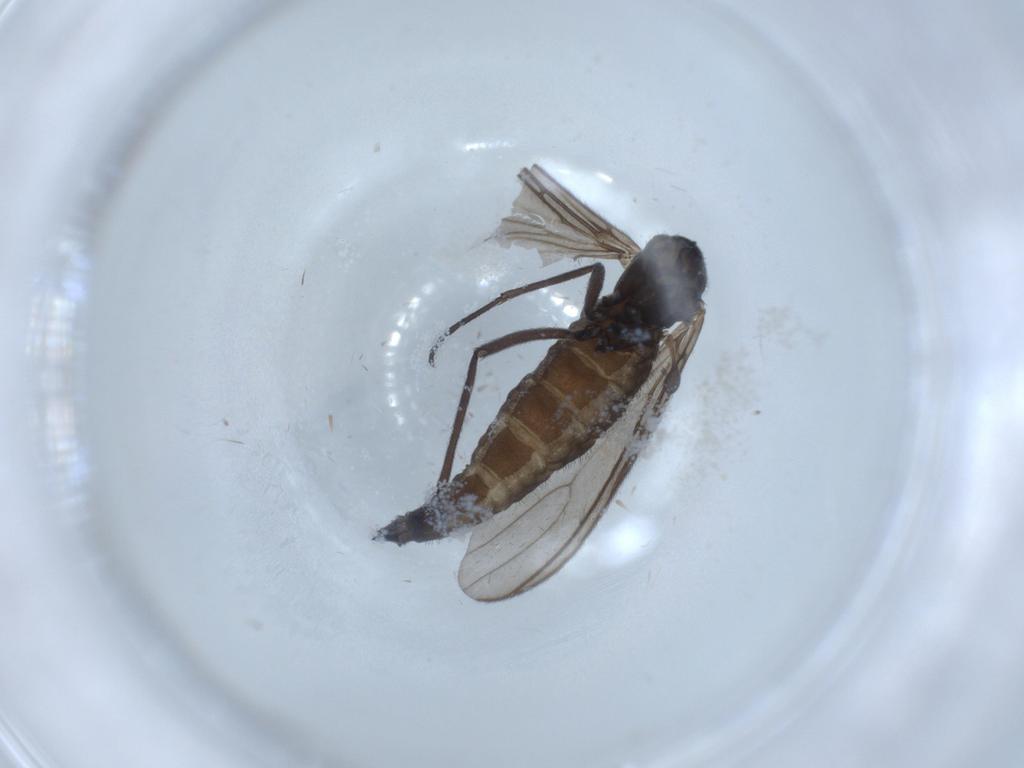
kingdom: Animalia
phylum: Arthropoda
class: Insecta
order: Diptera
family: Sciaridae
